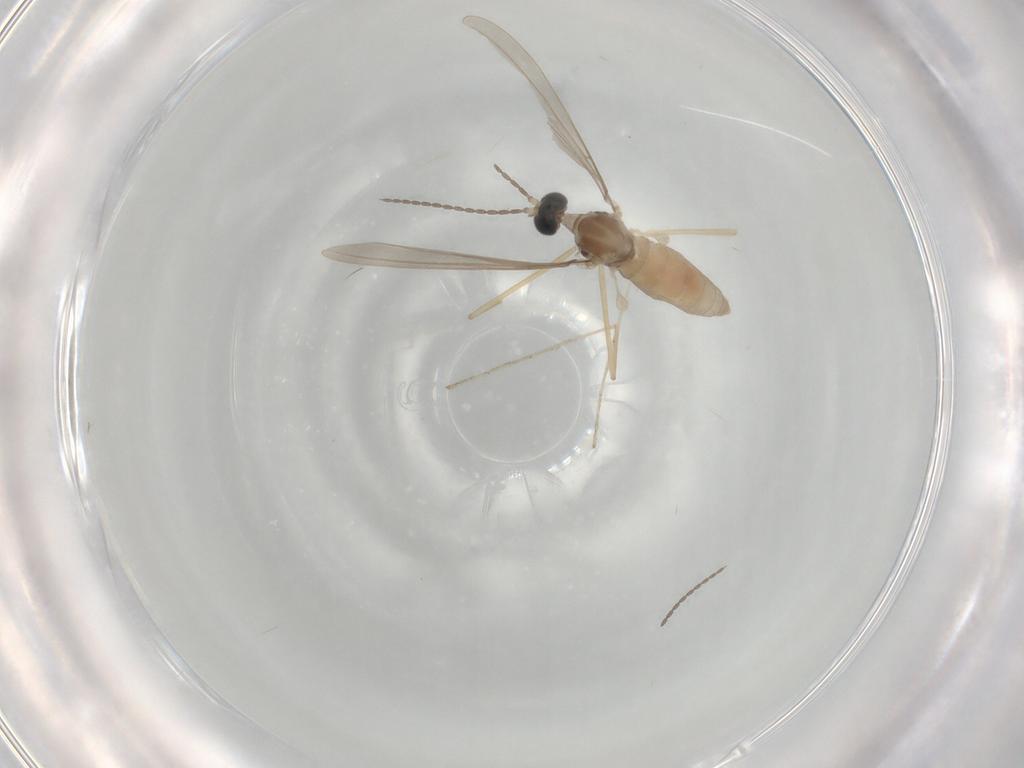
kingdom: Animalia
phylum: Arthropoda
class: Insecta
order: Diptera
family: Cecidomyiidae
